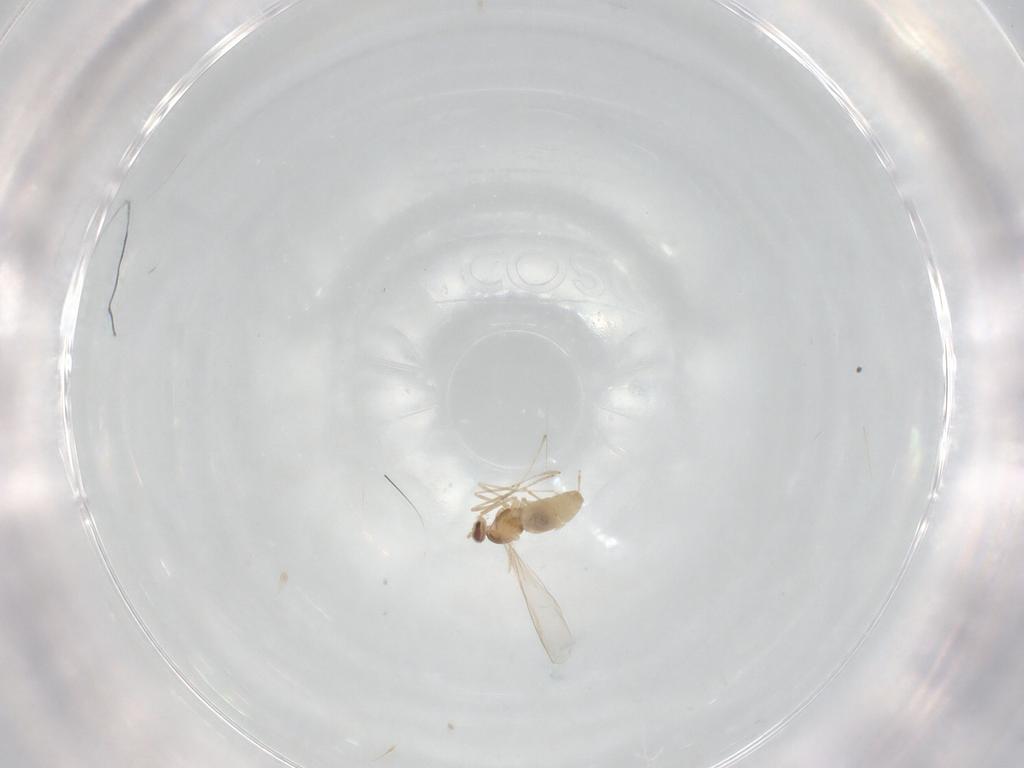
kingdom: Animalia
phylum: Arthropoda
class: Insecta
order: Diptera
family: Cecidomyiidae
